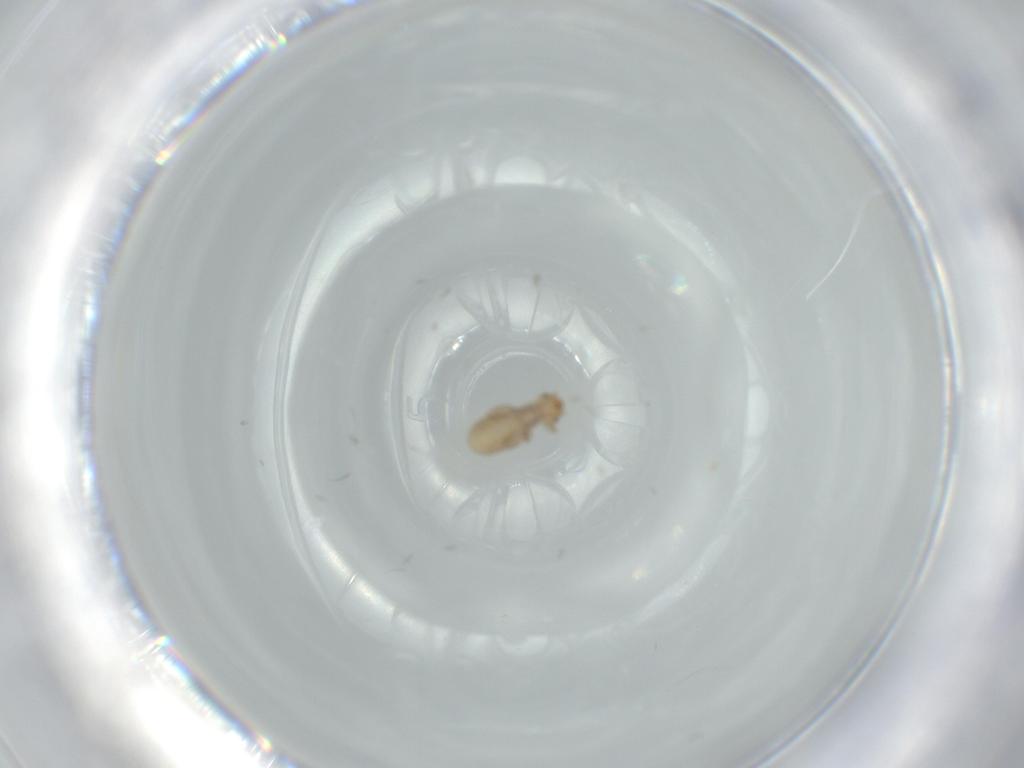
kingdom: Animalia
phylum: Arthropoda
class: Insecta
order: Psocodea
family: Liposcelididae
